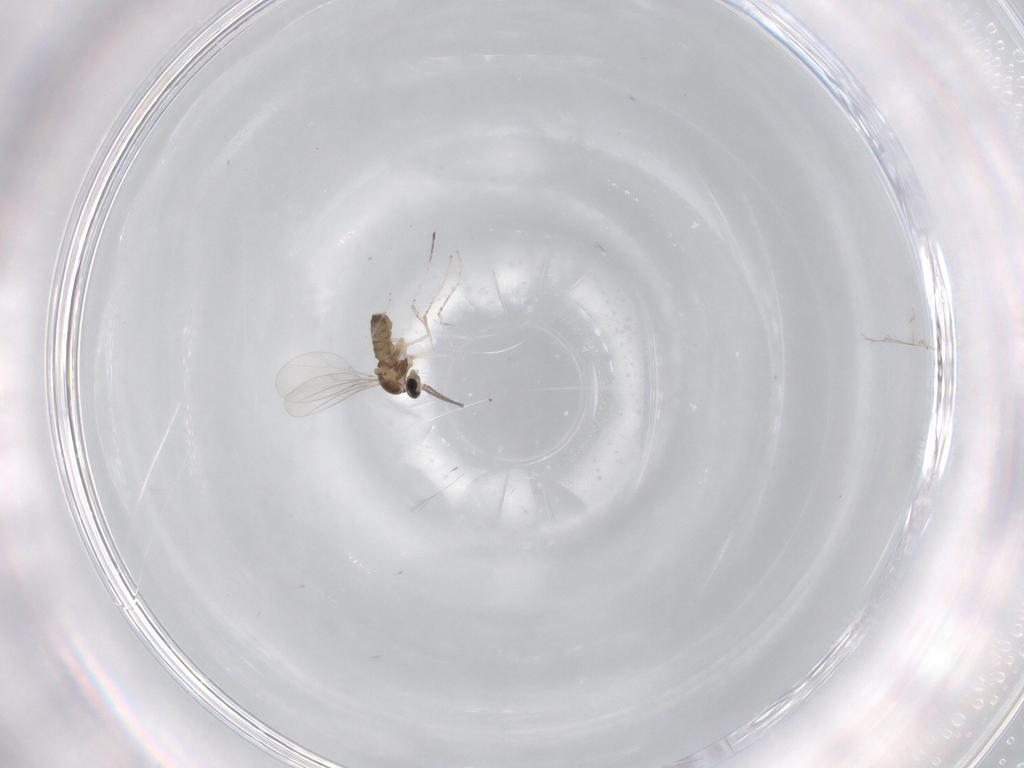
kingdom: Animalia
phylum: Arthropoda
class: Insecta
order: Diptera
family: Cecidomyiidae
